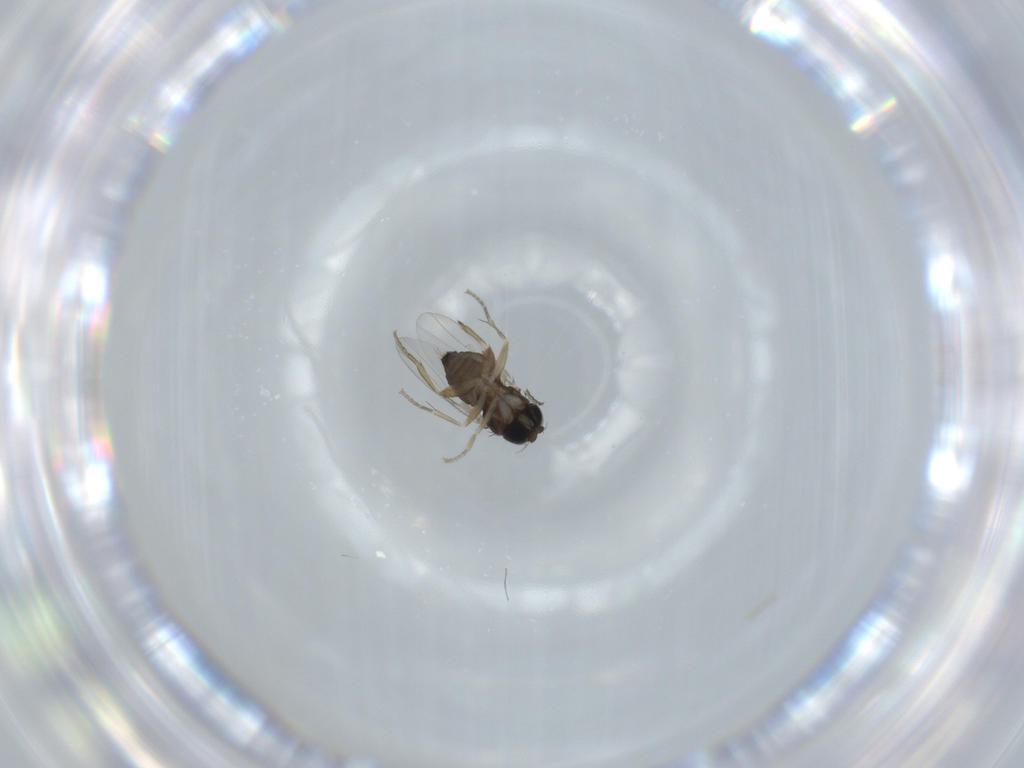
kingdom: Animalia
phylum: Arthropoda
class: Insecta
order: Diptera
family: Phoridae
